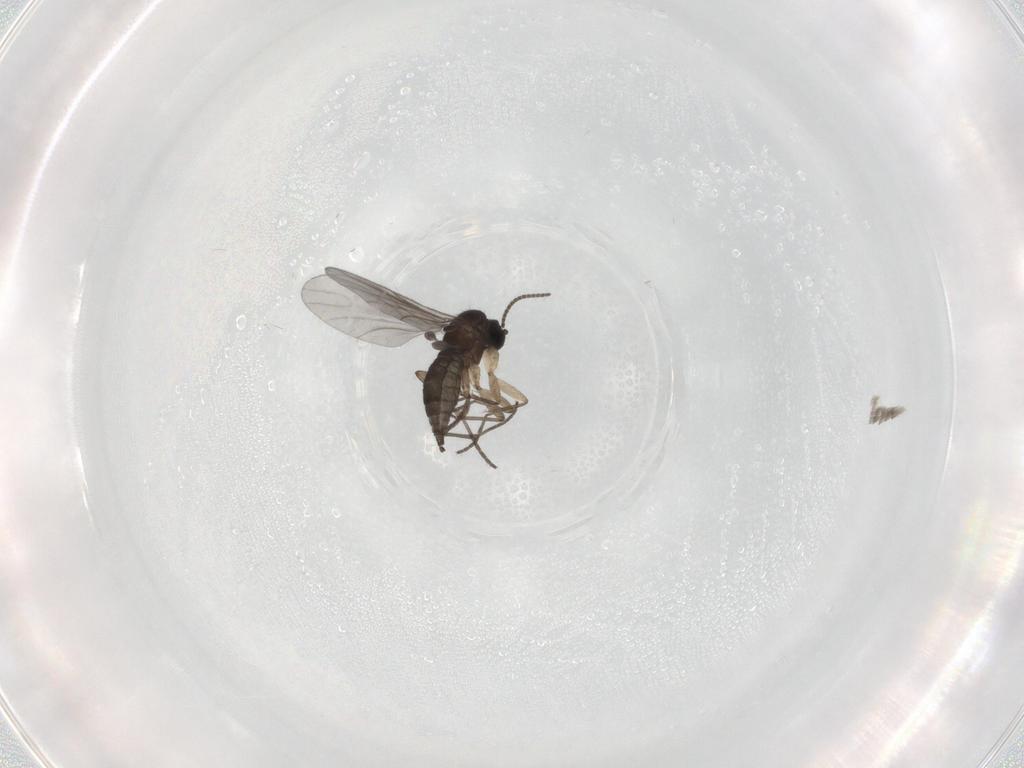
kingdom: Animalia
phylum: Arthropoda
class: Insecta
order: Diptera
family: Sciaridae
